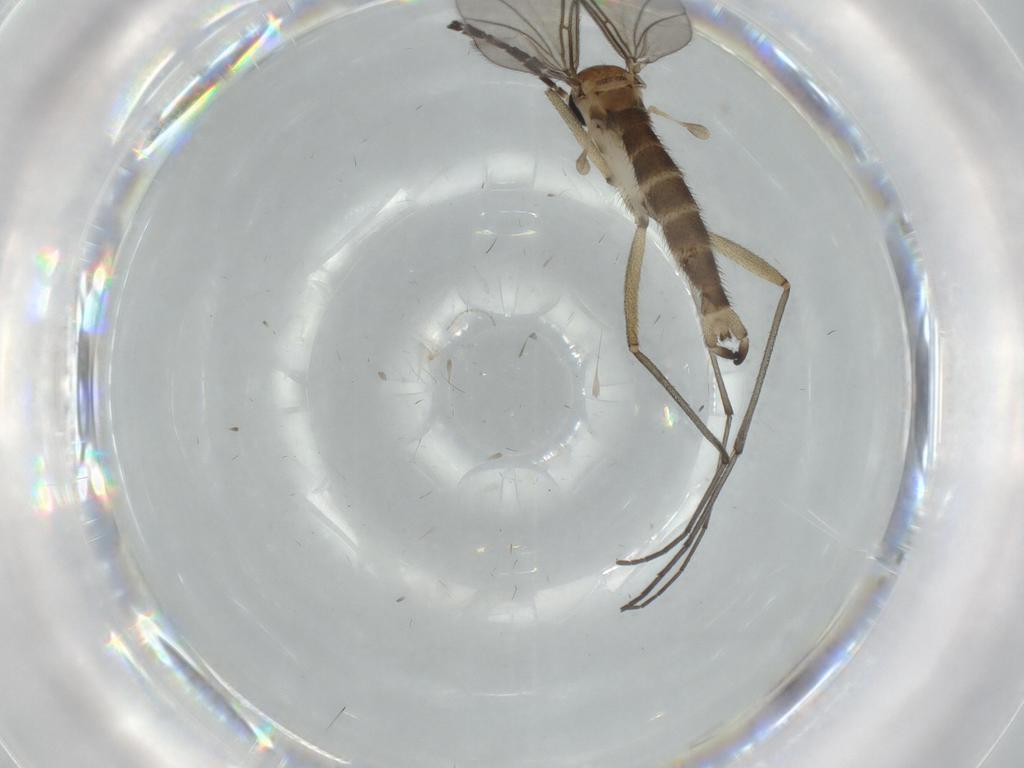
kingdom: Animalia
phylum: Arthropoda
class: Insecta
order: Diptera
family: Sciaridae
